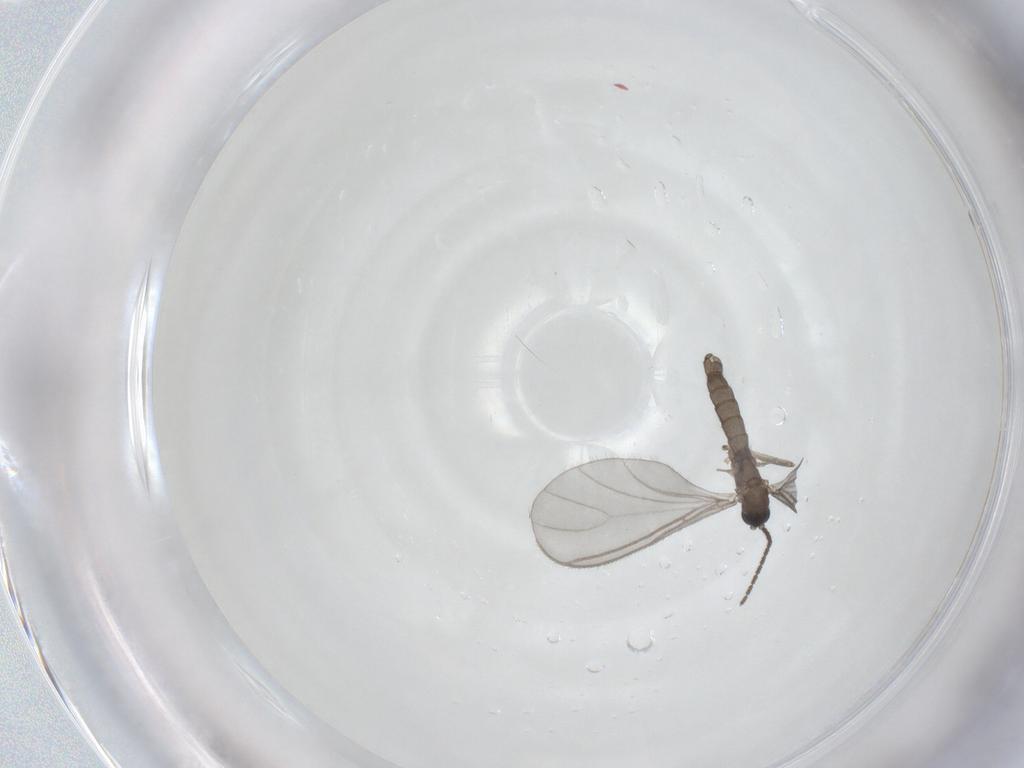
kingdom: Animalia
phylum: Arthropoda
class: Insecta
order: Diptera
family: Sciaridae
